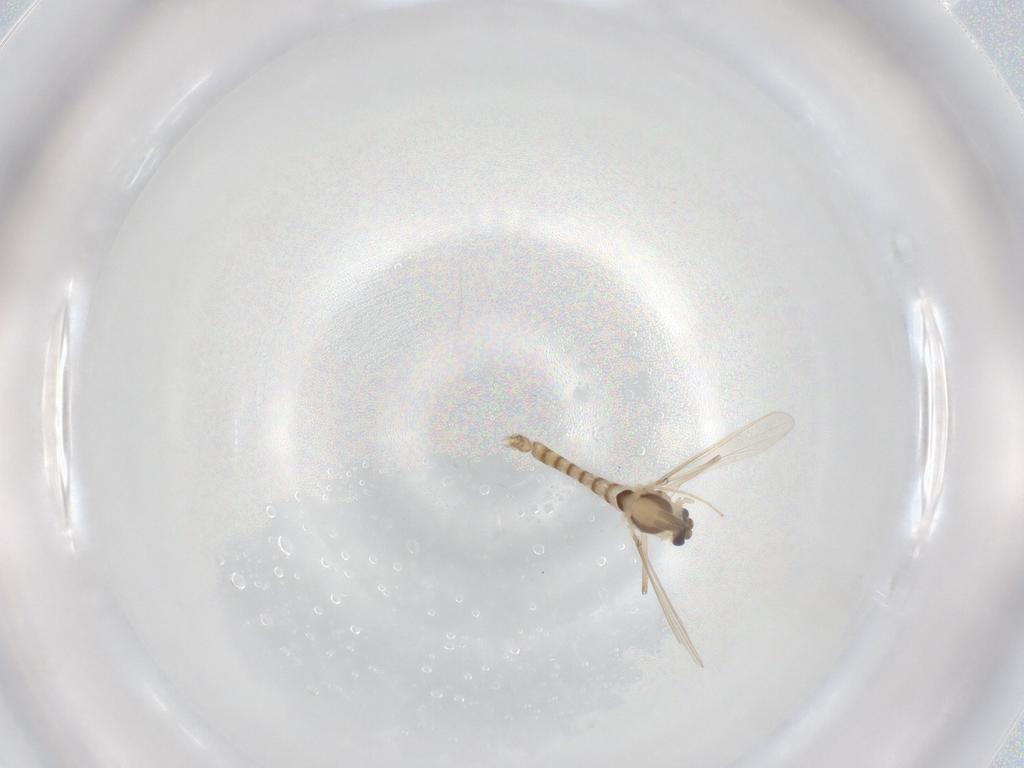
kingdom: Animalia
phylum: Arthropoda
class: Insecta
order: Diptera
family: Chironomidae
